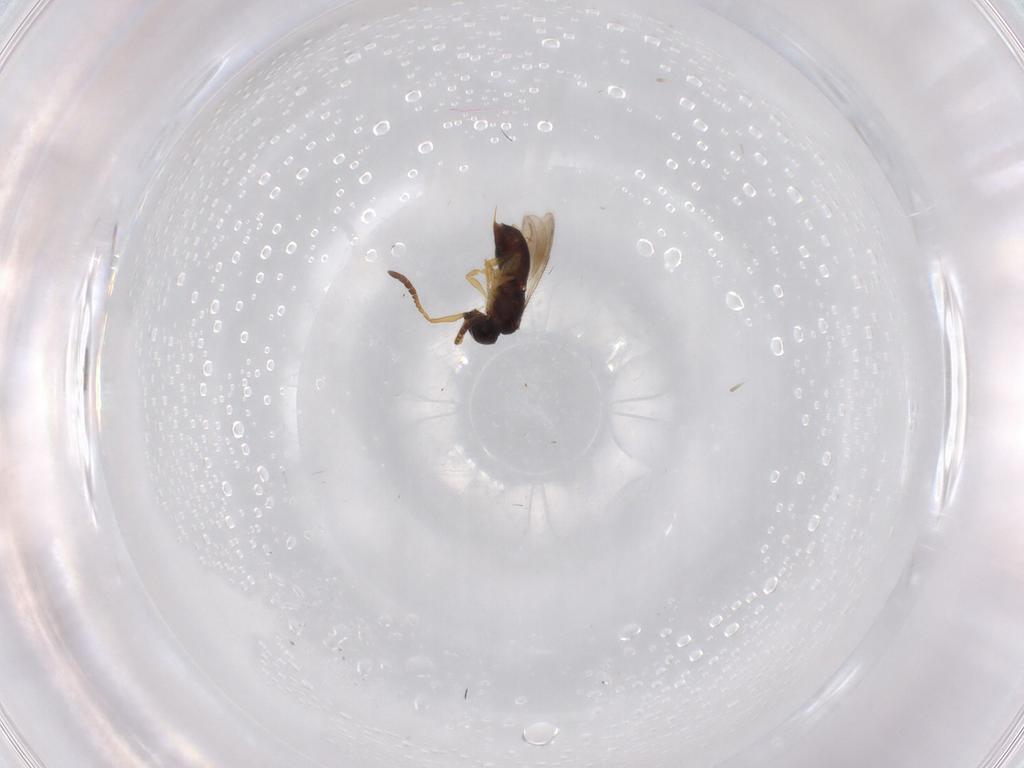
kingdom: Animalia
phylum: Arthropoda
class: Insecta
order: Hymenoptera
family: Ceraphronidae
